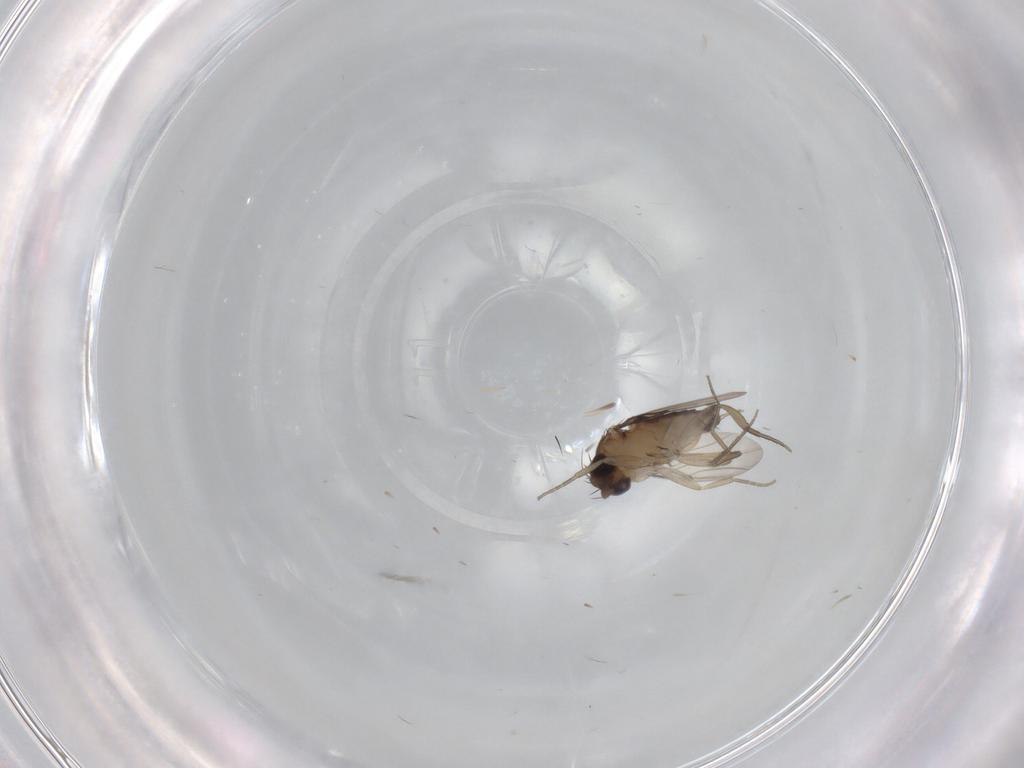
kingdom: Animalia
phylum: Arthropoda
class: Insecta
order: Diptera
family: Phoridae
